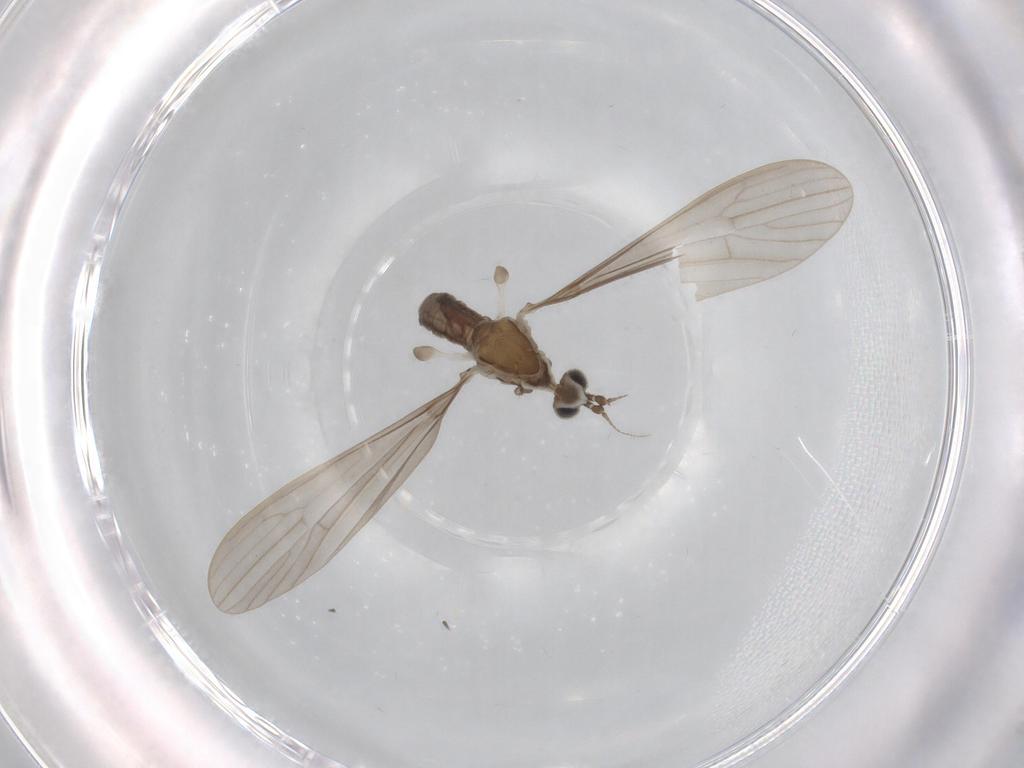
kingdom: Animalia
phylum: Arthropoda
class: Insecta
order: Diptera
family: Limoniidae
